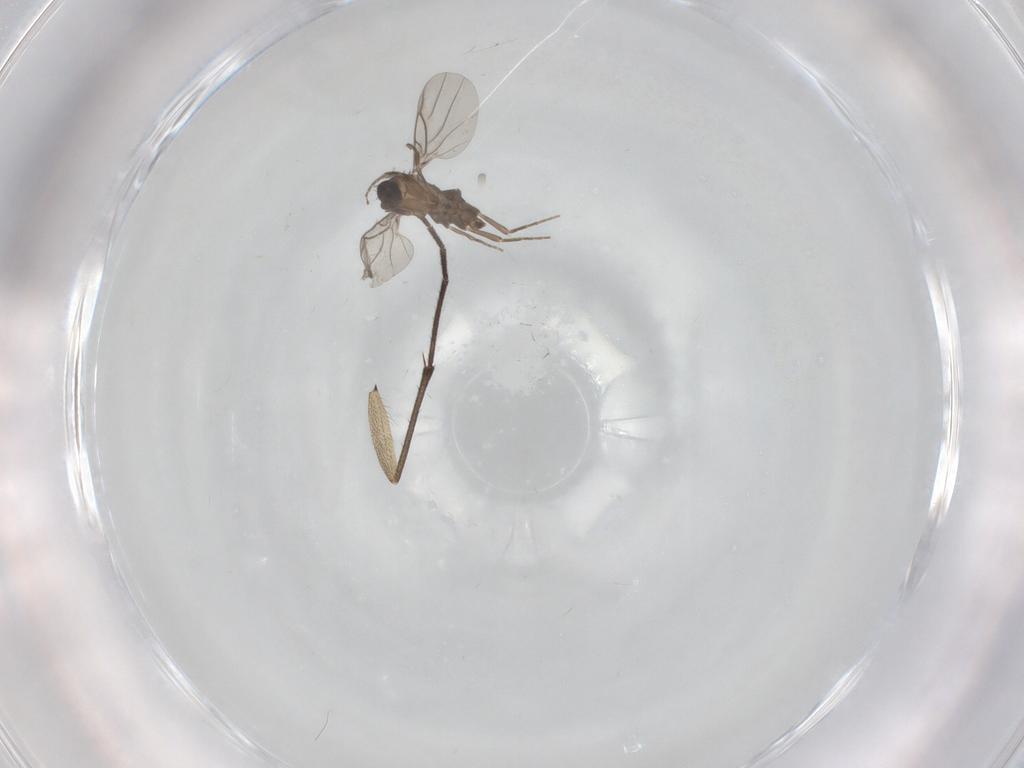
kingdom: Animalia
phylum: Arthropoda
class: Insecta
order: Diptera
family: Sciaridae
